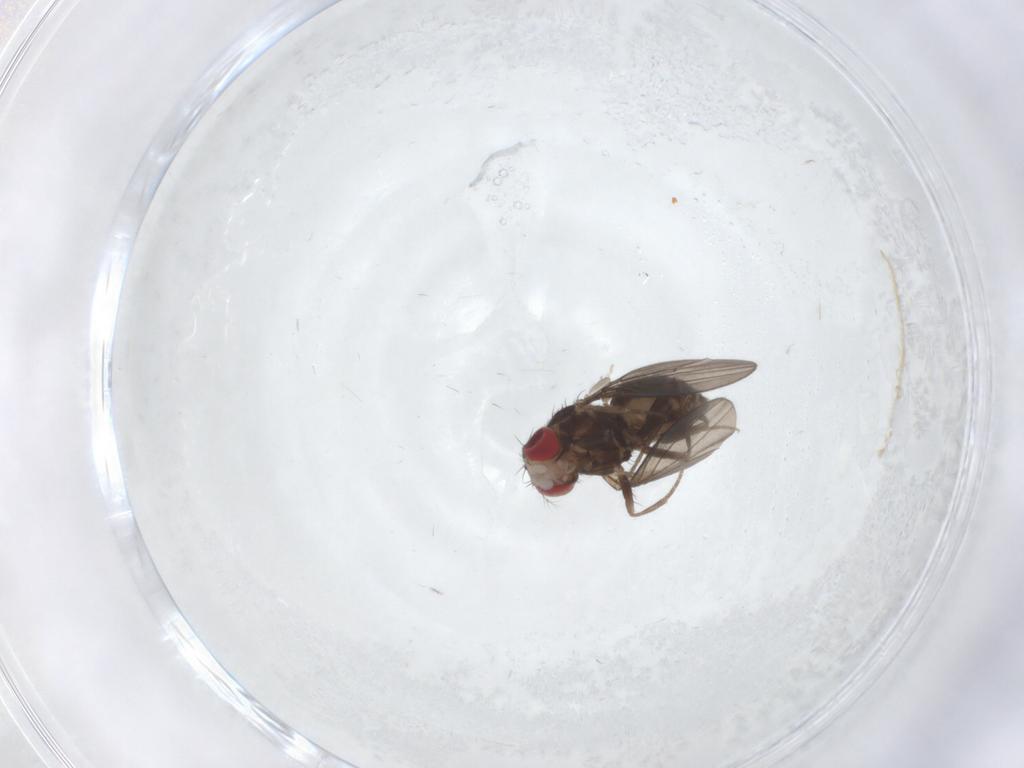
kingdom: Animalia
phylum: Arthropoda
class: Insecta
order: Diptera
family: Drosophilidae
